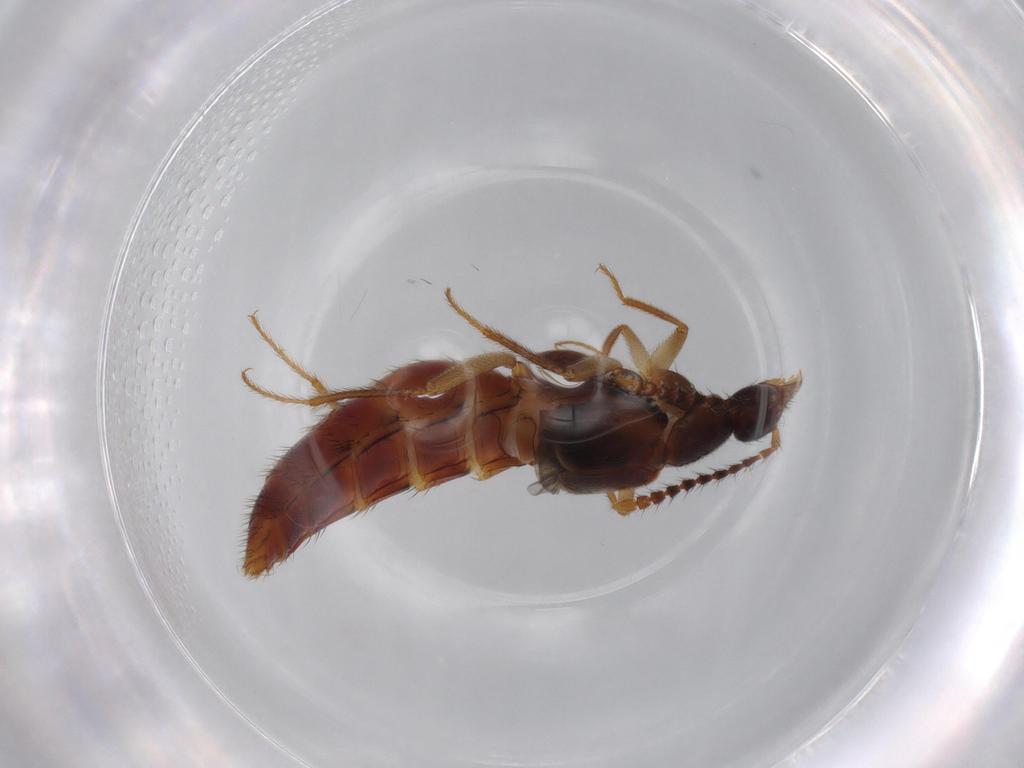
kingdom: Animalia
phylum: Arthropoda
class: Insecta
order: Coleoptera
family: Staphylinidae
